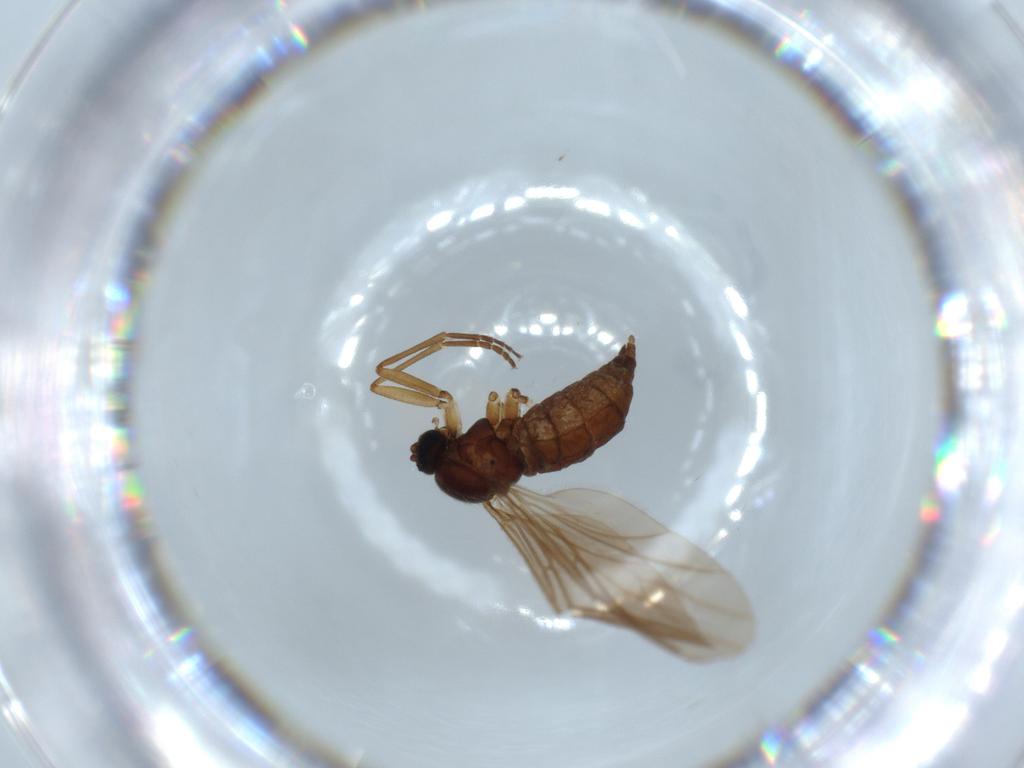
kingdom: Animalia
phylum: Arthropoda
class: Insecta
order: Diptera
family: Sciaridae
